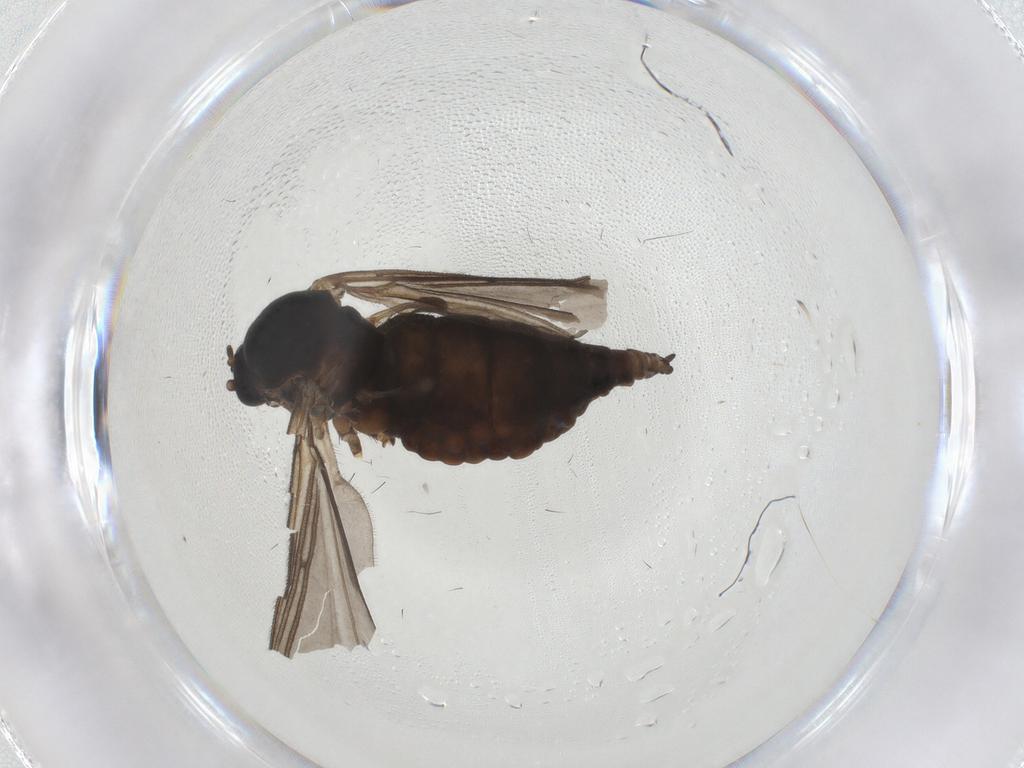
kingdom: Animalia
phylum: Arthropoda
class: Insecta
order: Diptera
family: Sciaridae
